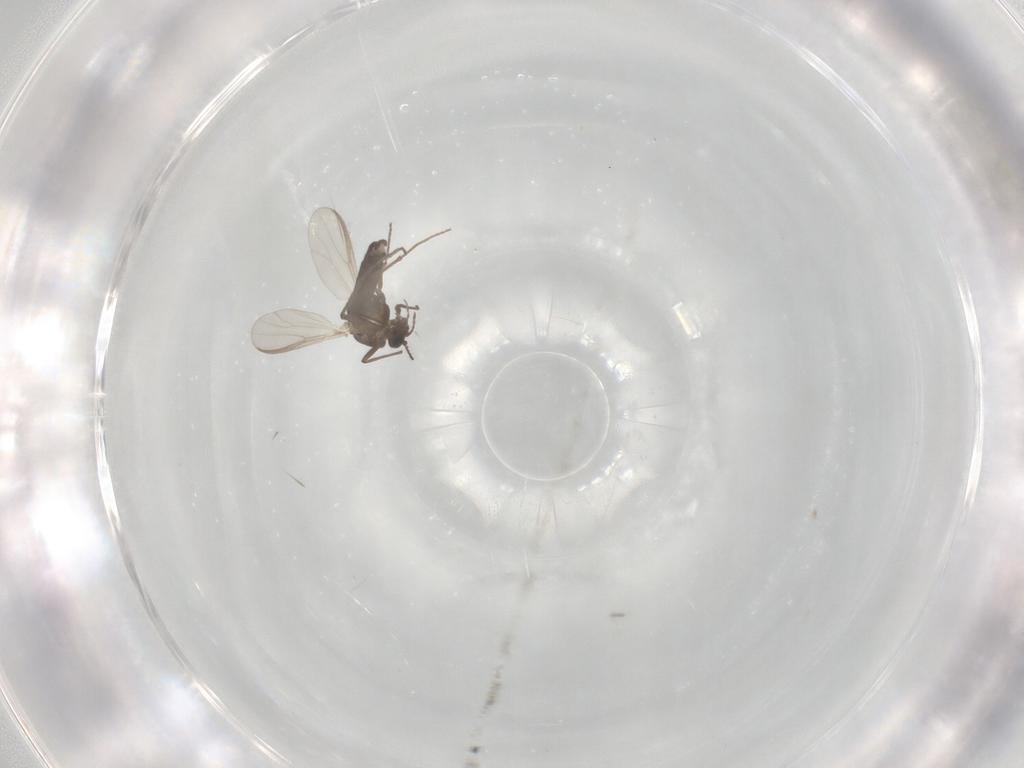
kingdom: Animalia
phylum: Arthropoda
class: Insecta
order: Diptera
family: Chironomidae
